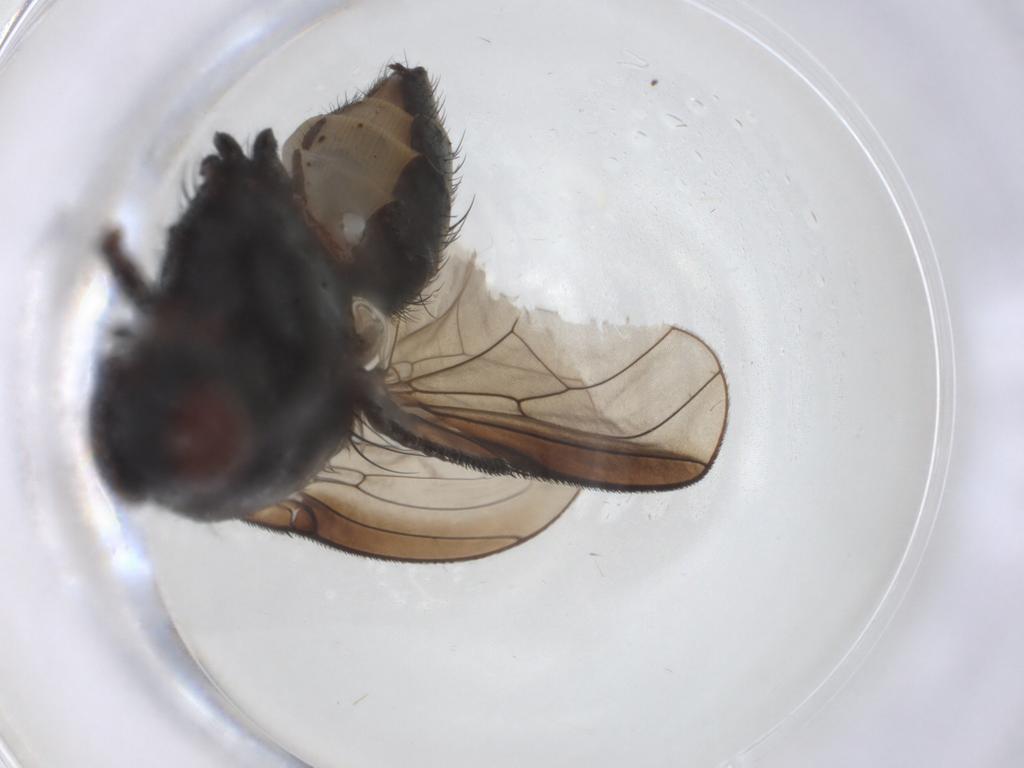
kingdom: Animalia
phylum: Arthropoda
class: Insecta
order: Diptera
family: Anthomyiidae
